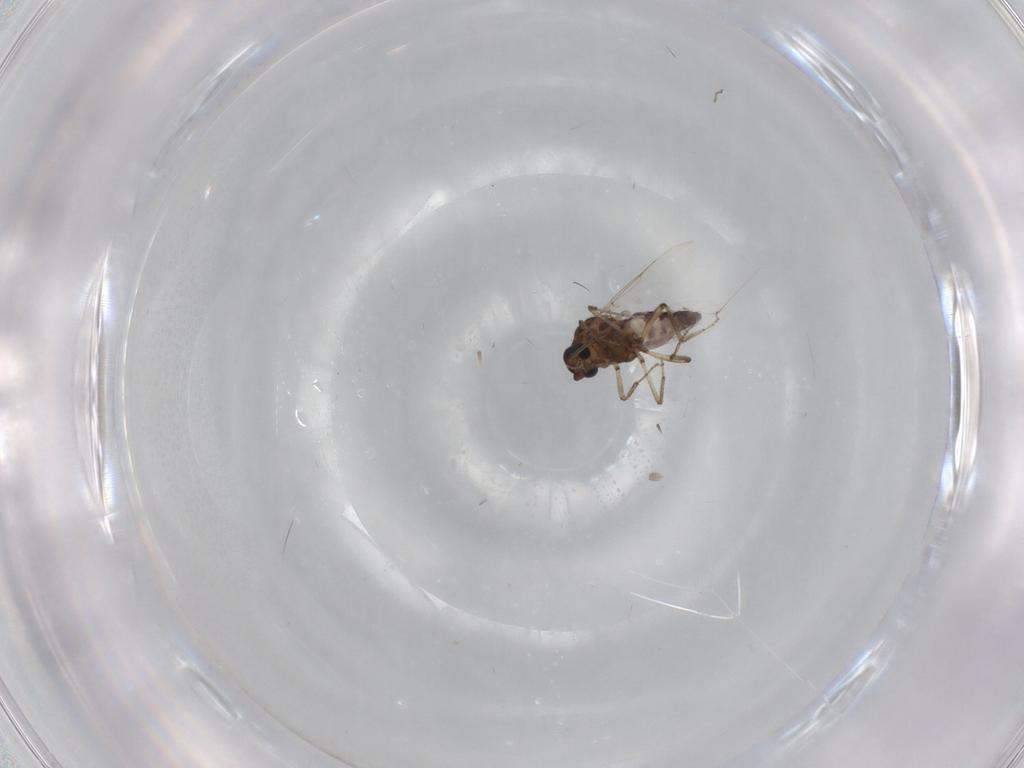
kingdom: Animalia
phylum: Arthropoda
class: Insecta
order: Diptera
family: Ceratopogonidae
